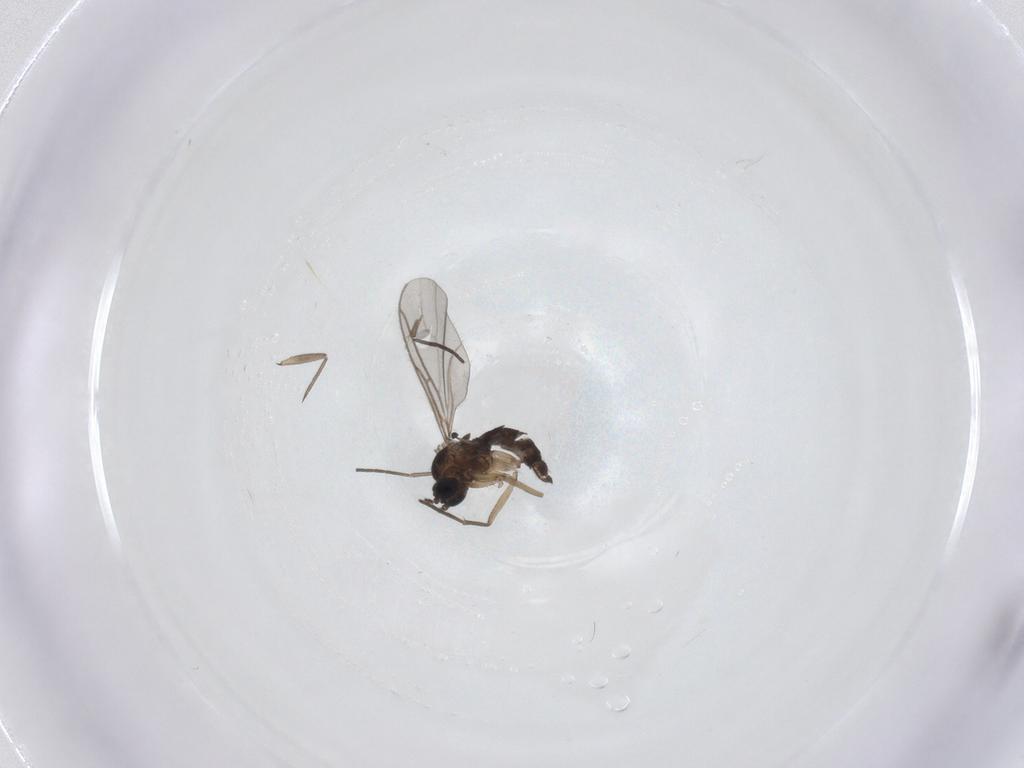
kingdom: Animalia
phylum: Arthropoda
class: Insecta
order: Diptera
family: Sciaridae
